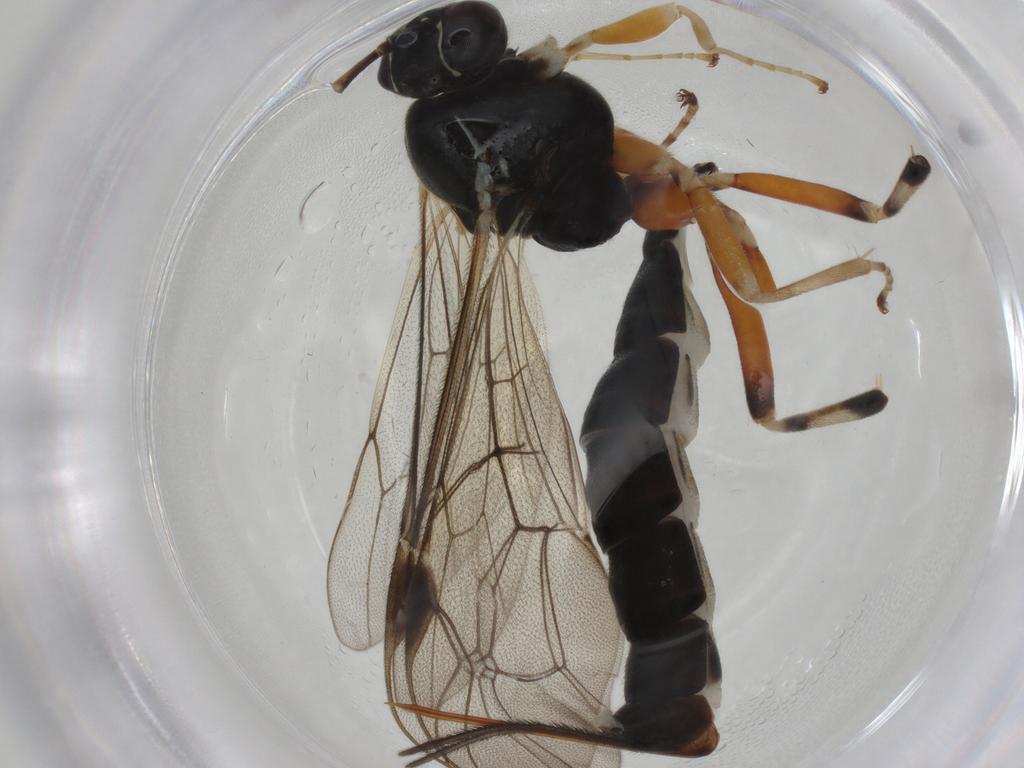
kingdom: Animalia
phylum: Arthropoda
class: Insecta
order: Hymenoptera
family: Ichneumonidae
